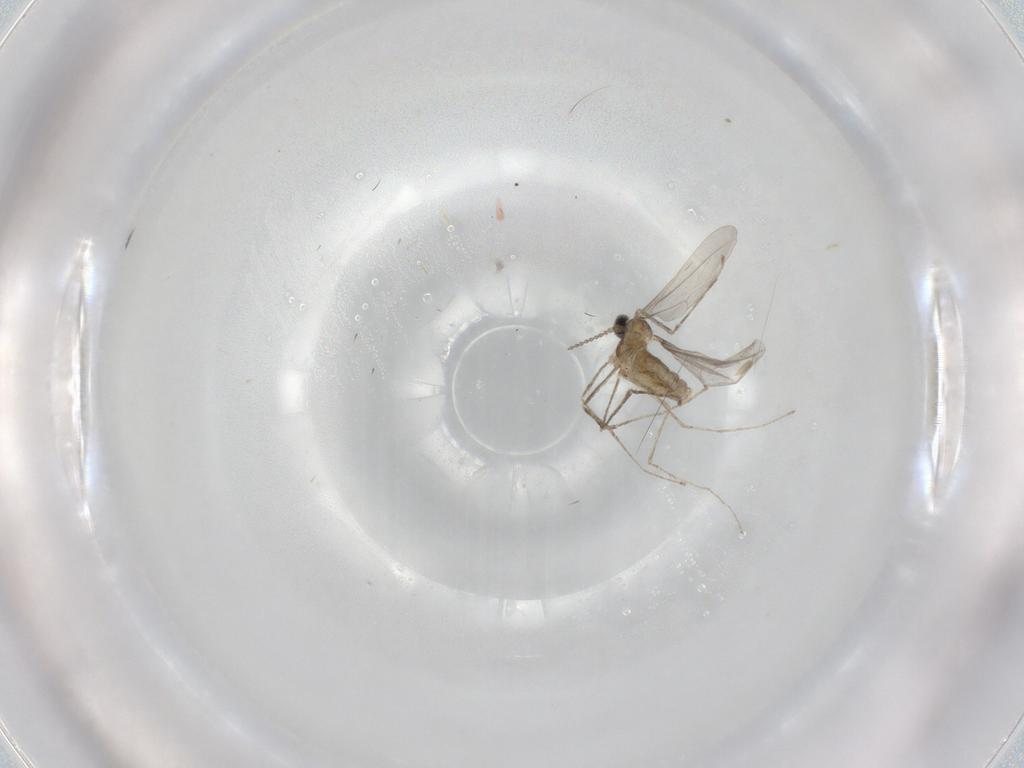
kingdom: Animalia
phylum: Arthropoda
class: Insecta
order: Diptera
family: Cecidomyiidae
